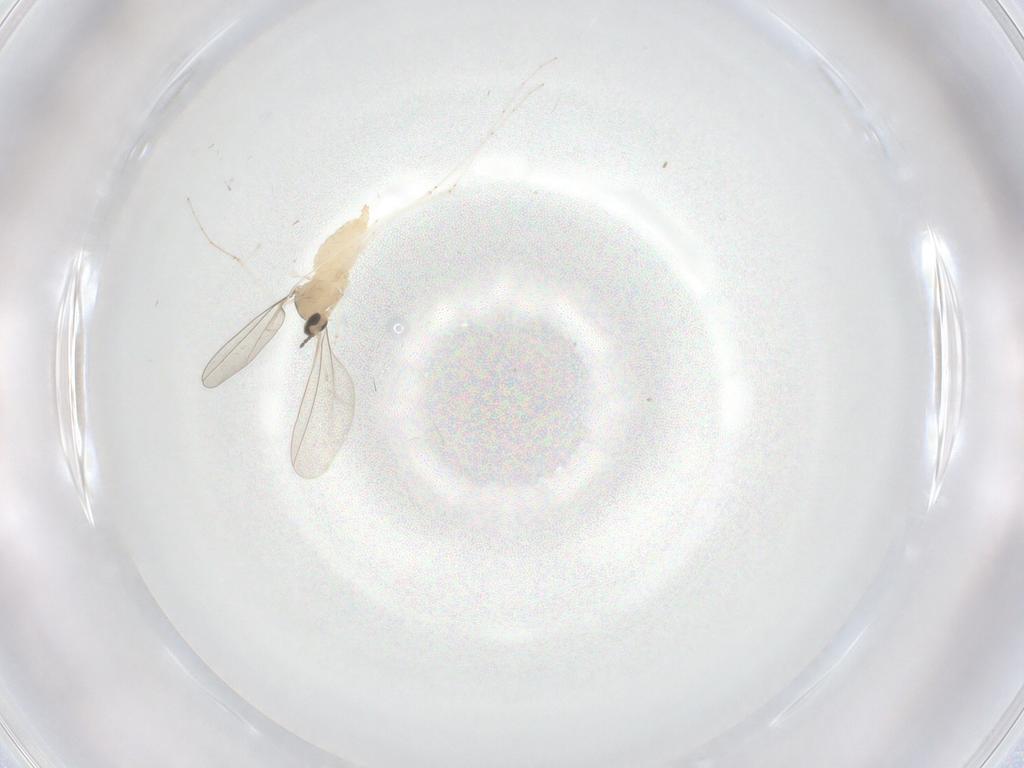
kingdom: Animalia
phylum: Arthropoda
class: Insecta
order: Diptera
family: Cecidomyiidae
